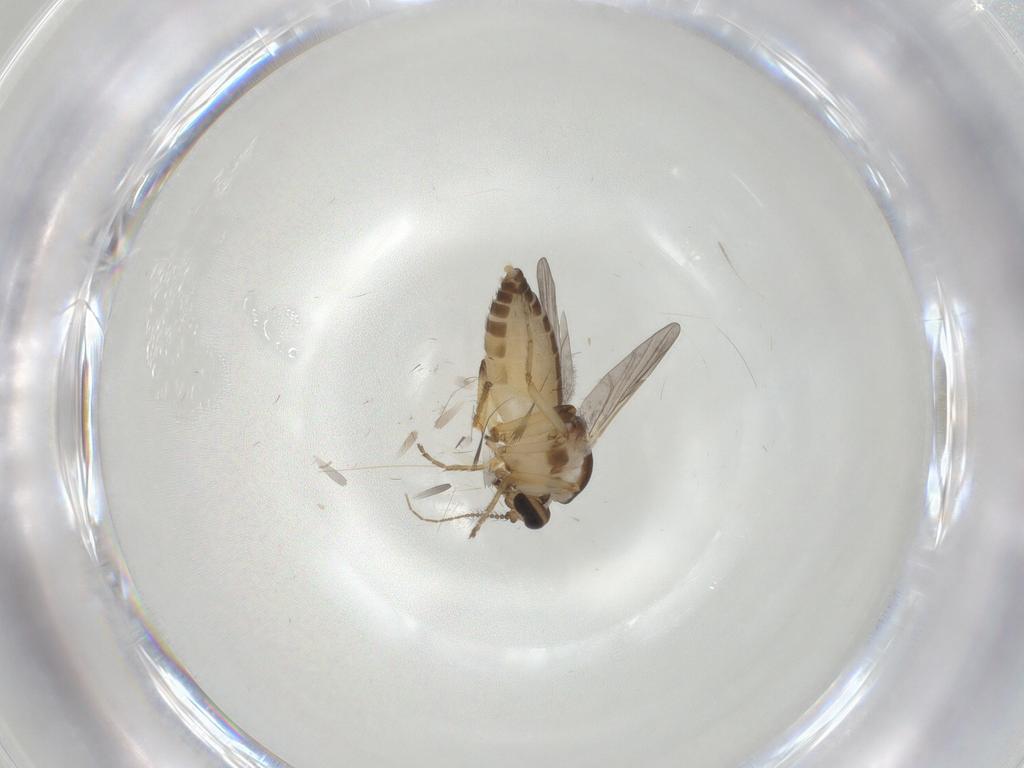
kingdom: Animalia
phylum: Arthropoda
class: Insecta
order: Diptera
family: Ceratopogonidae
